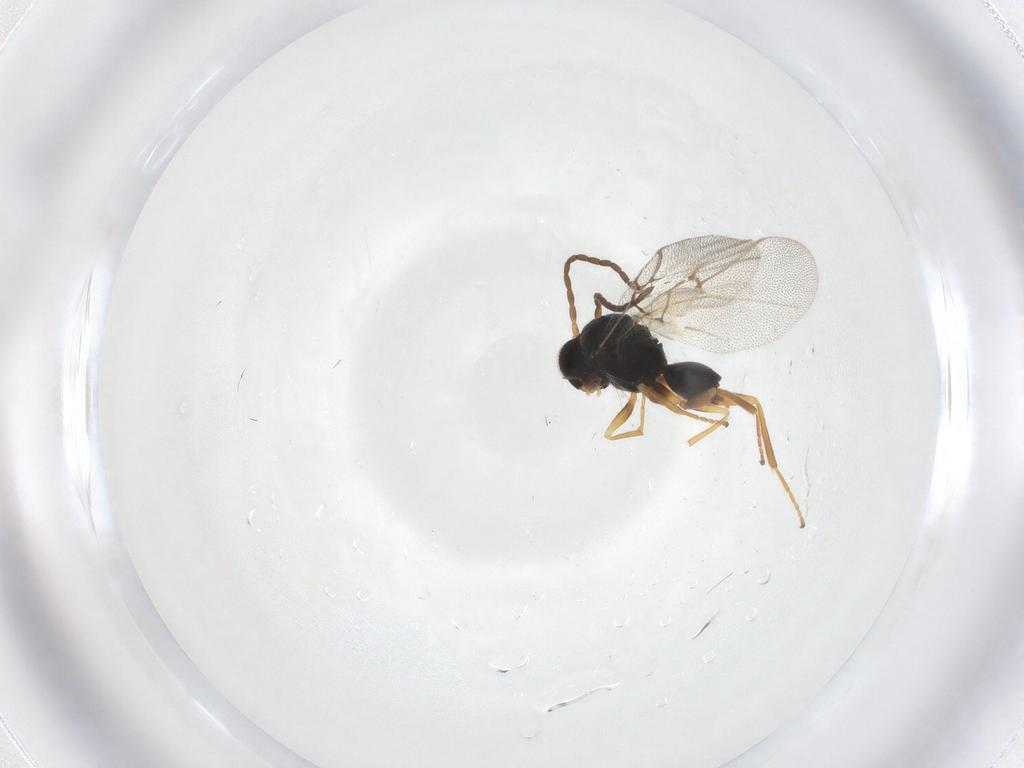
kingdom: Animalia
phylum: Arthropoda
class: Insecta
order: Hymenoptera
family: Cynipidae
